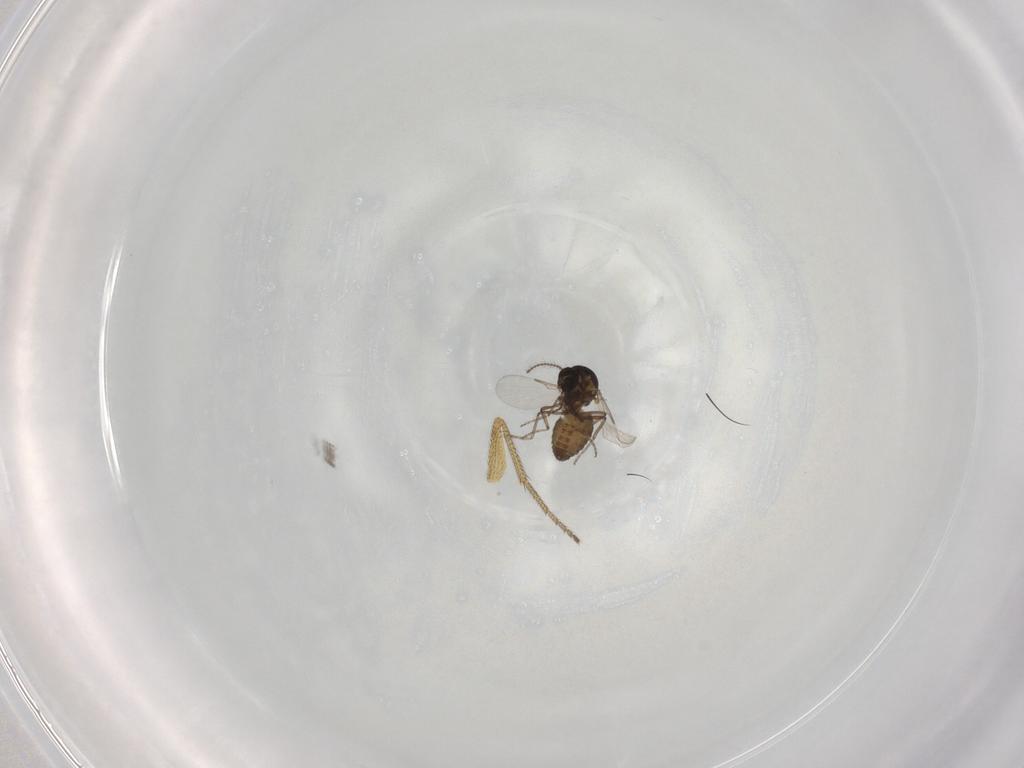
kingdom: Animalia
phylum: Arthropoda
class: Insecta
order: Diptera
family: Ceratopogonidae
